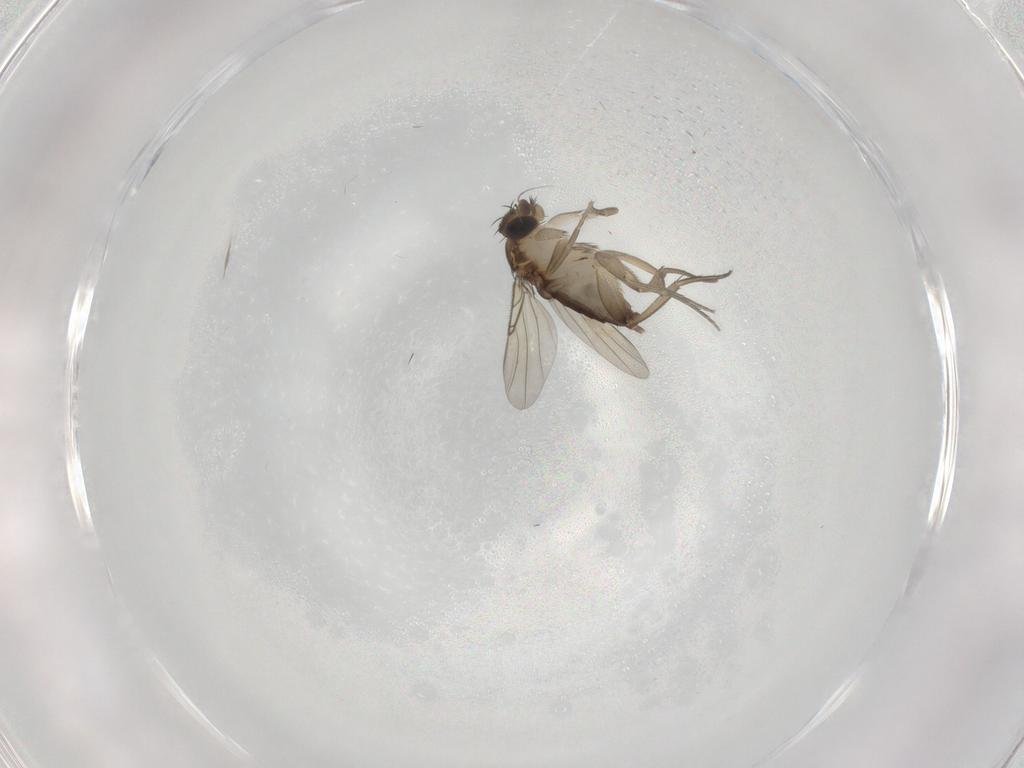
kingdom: Animalia
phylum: Arthropoda
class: Insecta
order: Diptera
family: Phoridae
